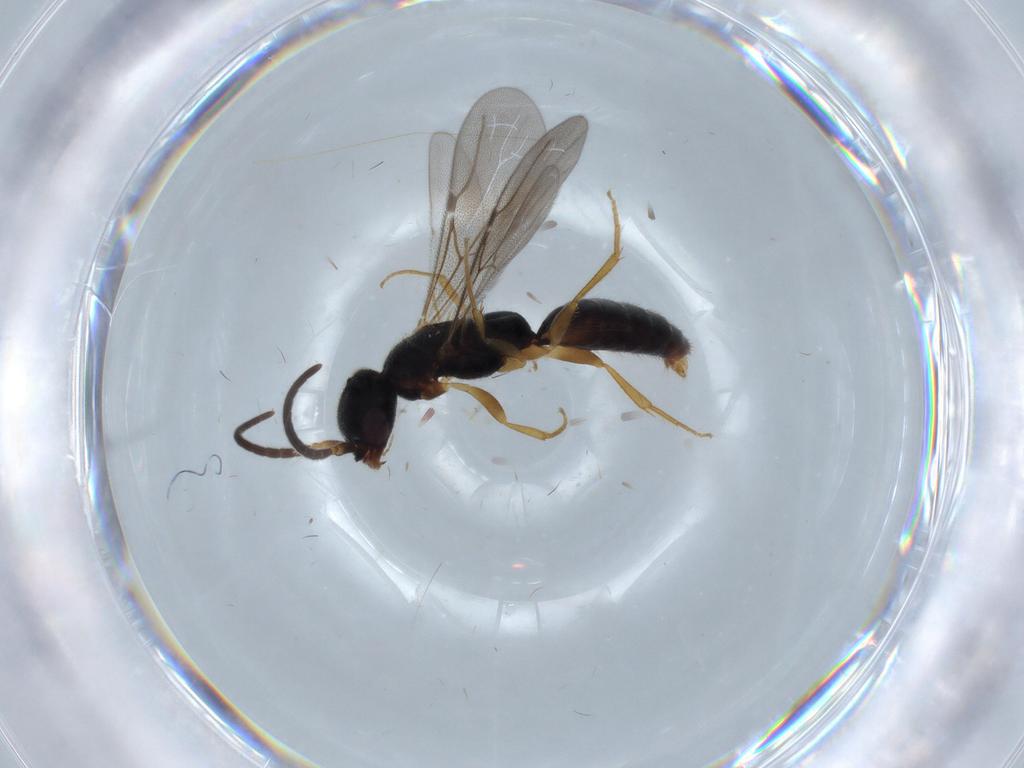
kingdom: Animalia
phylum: Arthropoda
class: Insecta
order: Hymenoptera
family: Bethylidae
